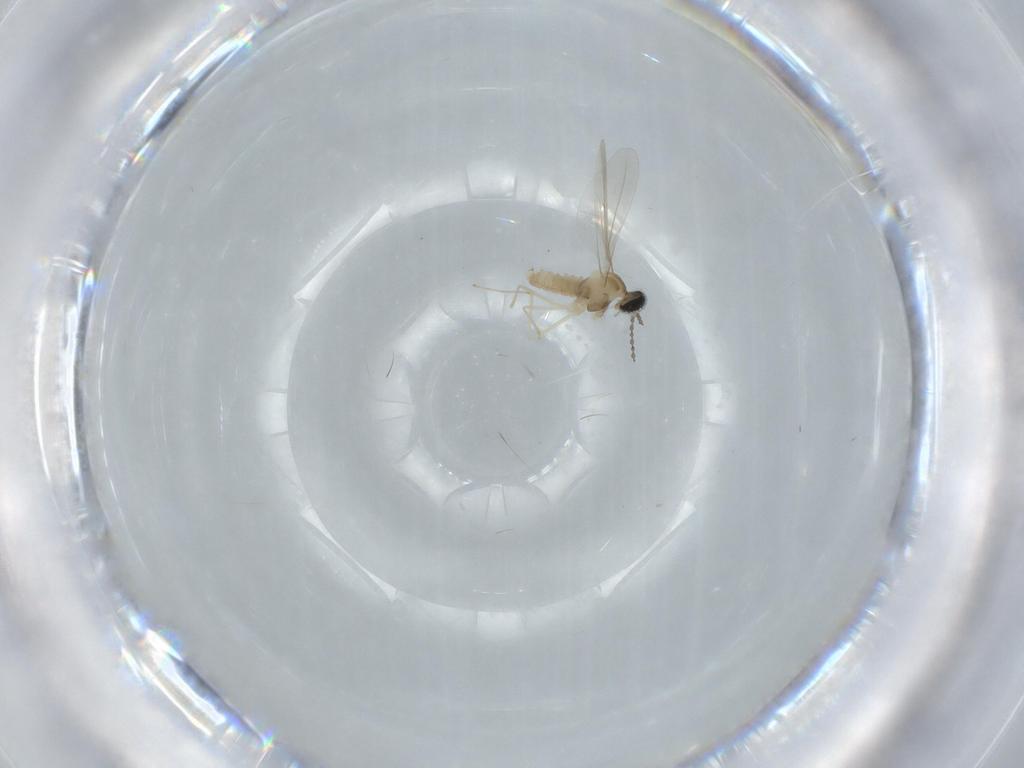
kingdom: Animalia
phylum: Arthropoda
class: Insecta
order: Diptera
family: Cecidomyiidae
